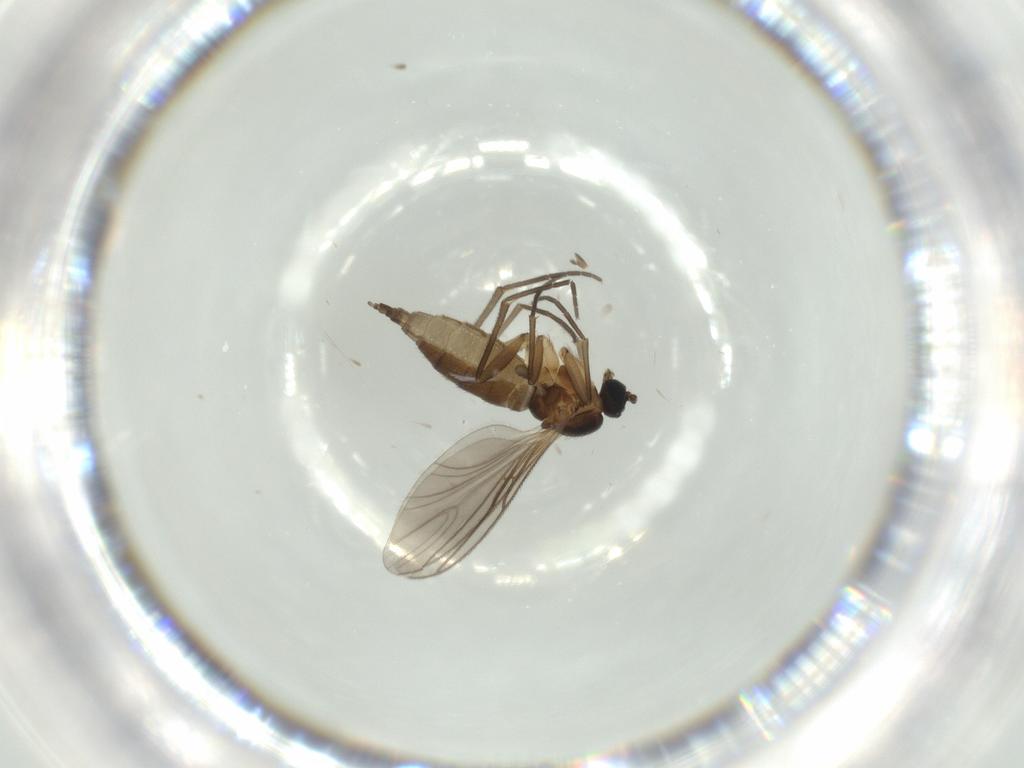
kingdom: Animalia
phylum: Arthropoda
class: Insecta
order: Diptera
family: Sciaridae
